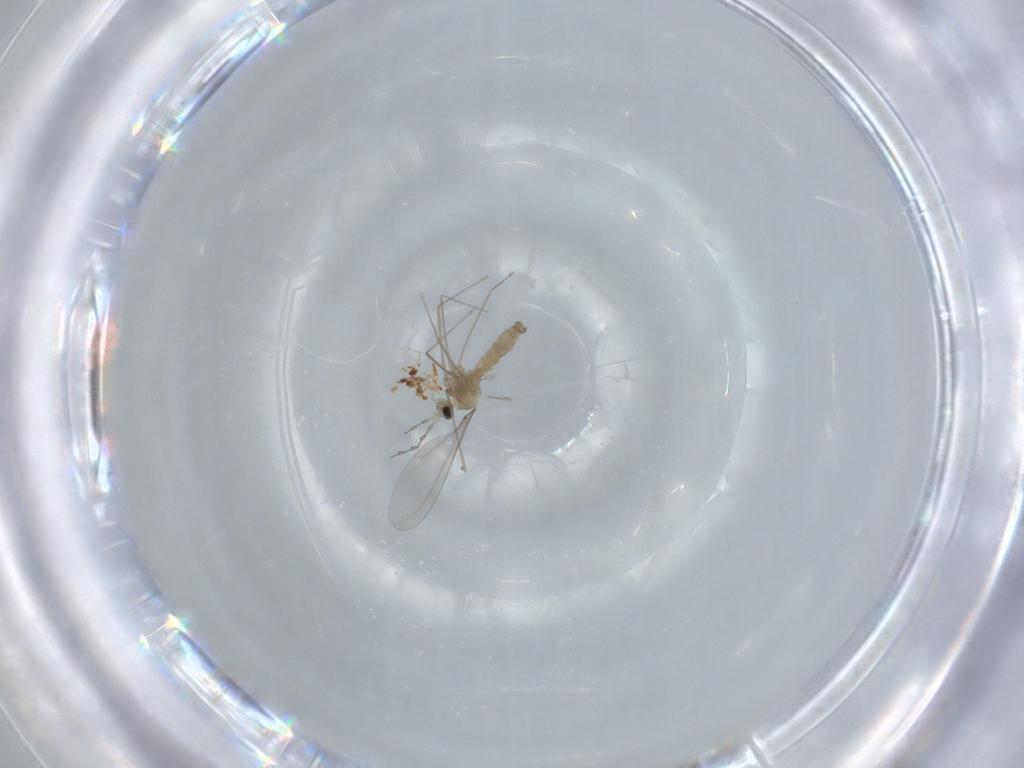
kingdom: Animalia
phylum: Arthropoda
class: Insecta
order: Diptera
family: Cecidomyiidae
